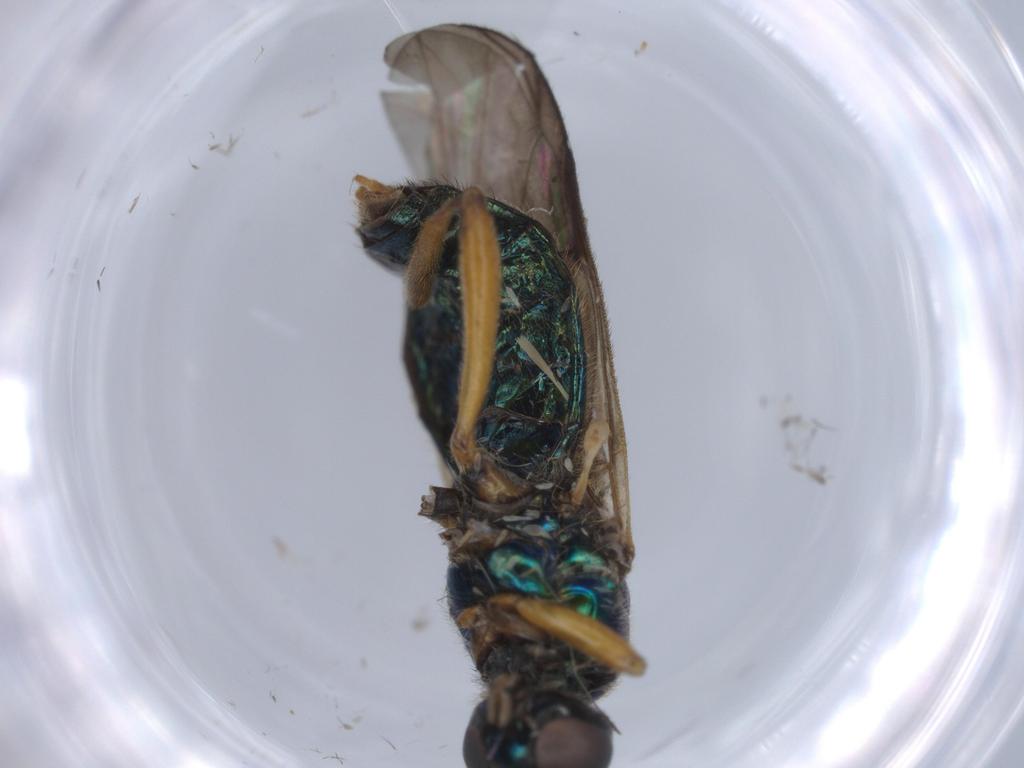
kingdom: Animalia
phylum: Arthropoda
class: Insecta
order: Diptera
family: Stratiomyidae
